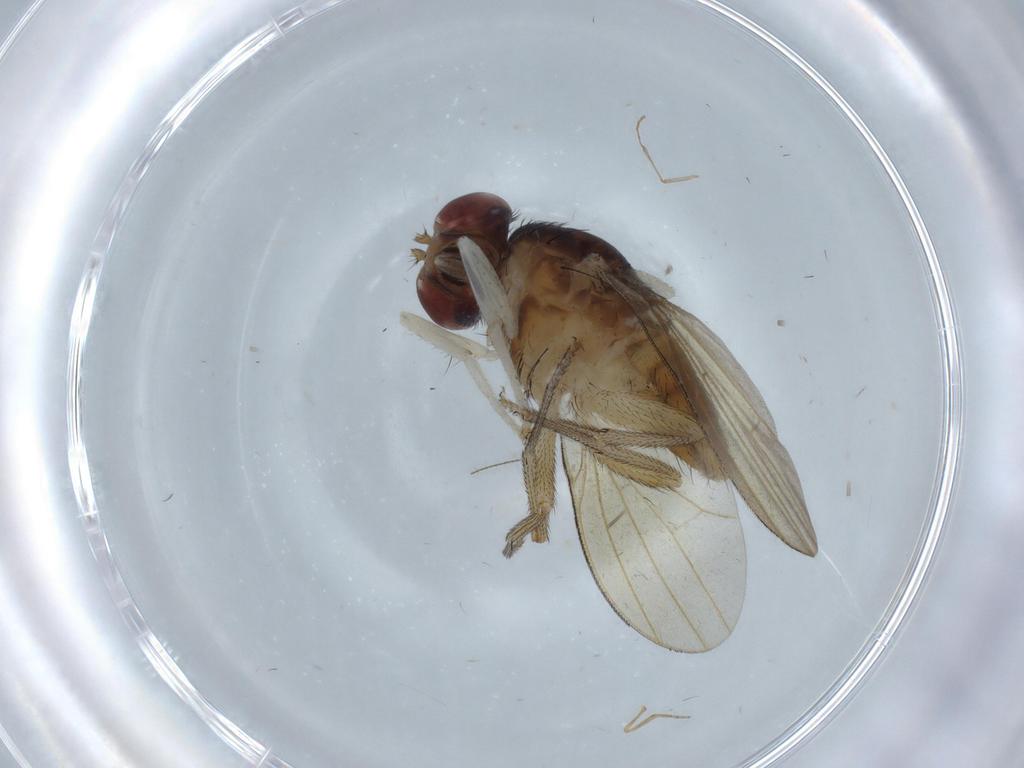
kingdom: Animalia
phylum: Arthropoda
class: Insecta
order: Diptera
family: Lauxaniidae
